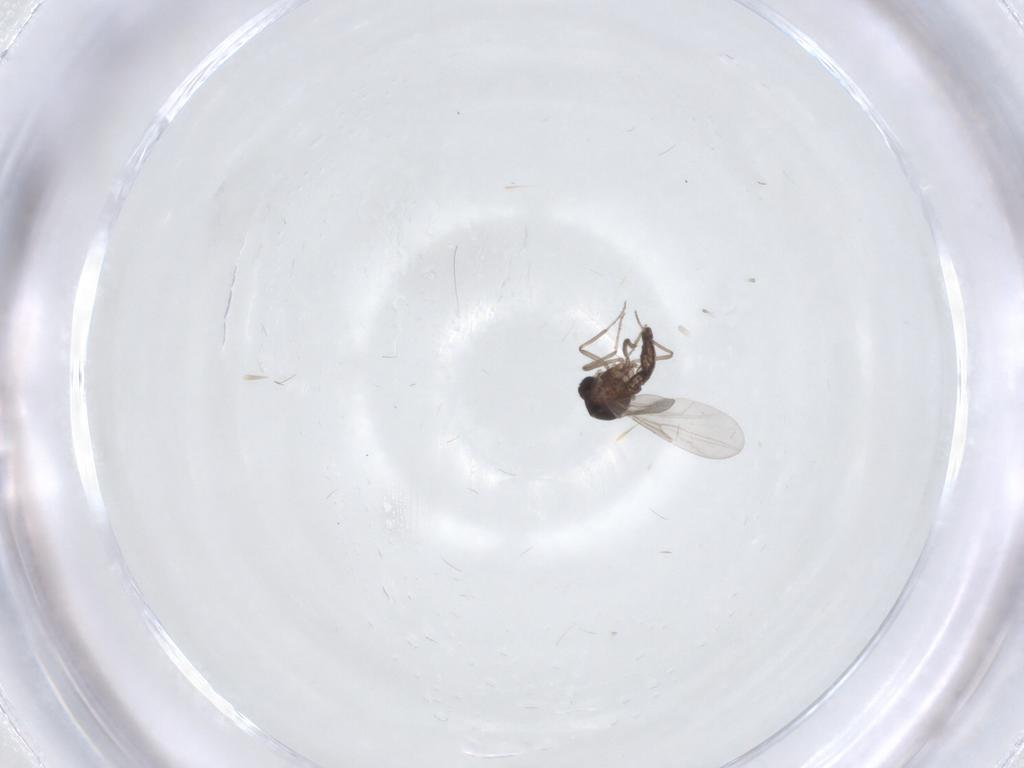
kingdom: Animalia
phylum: Arthropoda
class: Insecta
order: Diptera
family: Ceratopogonidae
